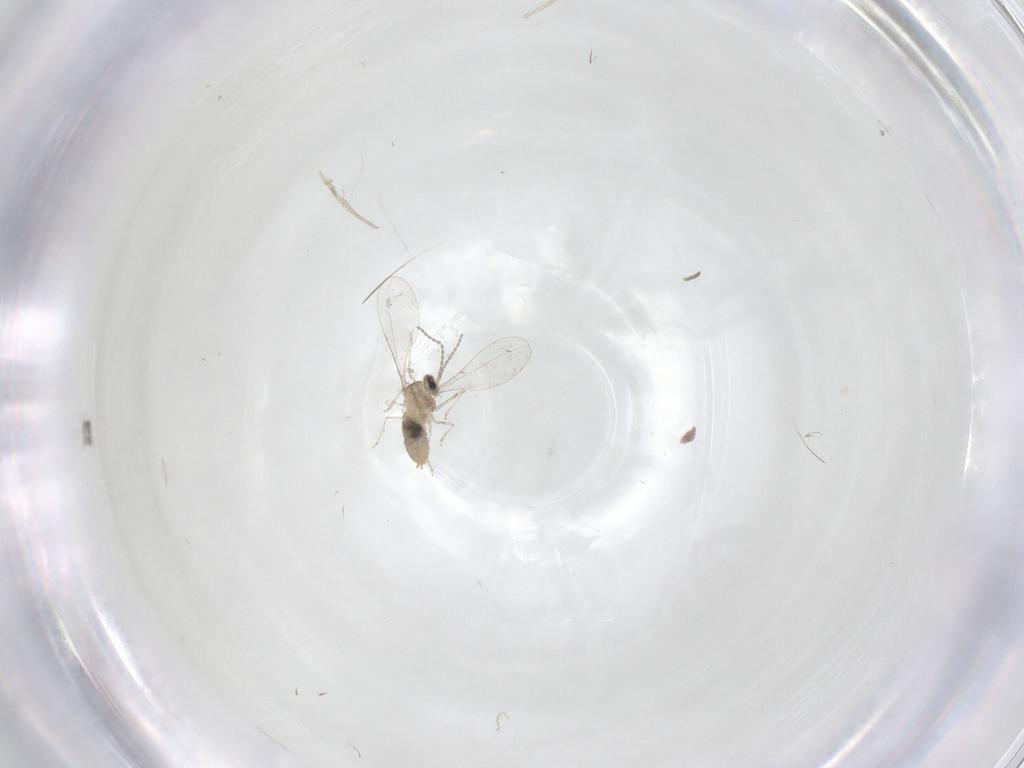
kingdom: Animalia
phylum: Arthropoda
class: Insecta
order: Diptera
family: Cecidomyiidae
